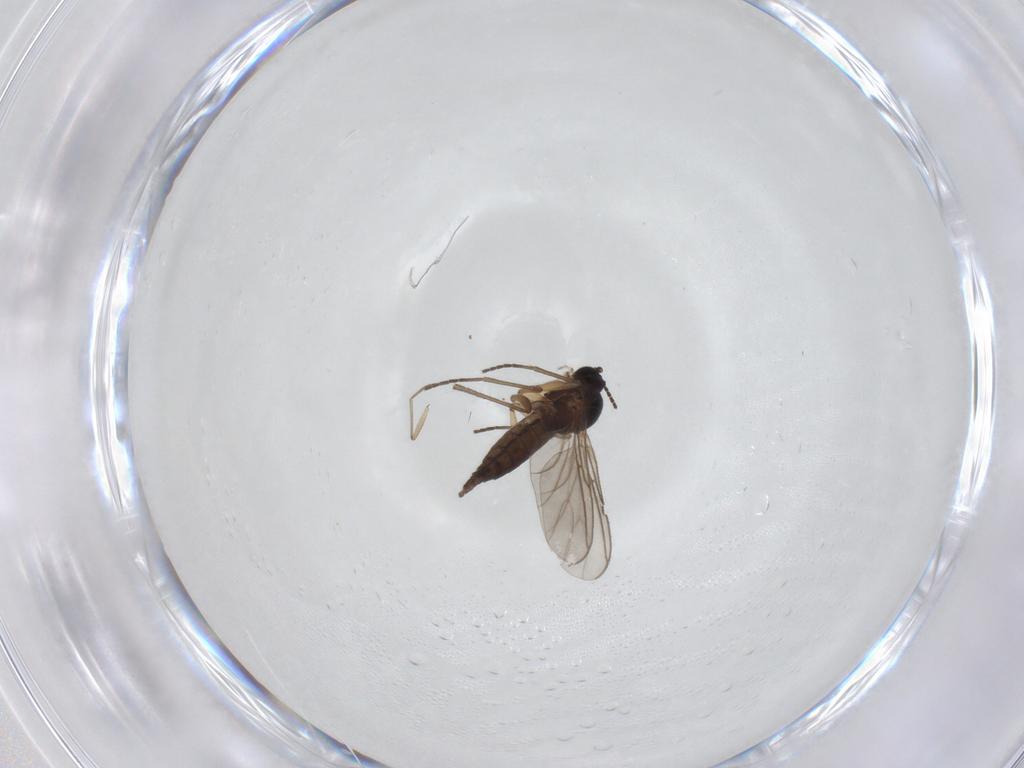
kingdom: Animalia
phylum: Arthropoda
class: Insecta
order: Diptera
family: Sciaridae
